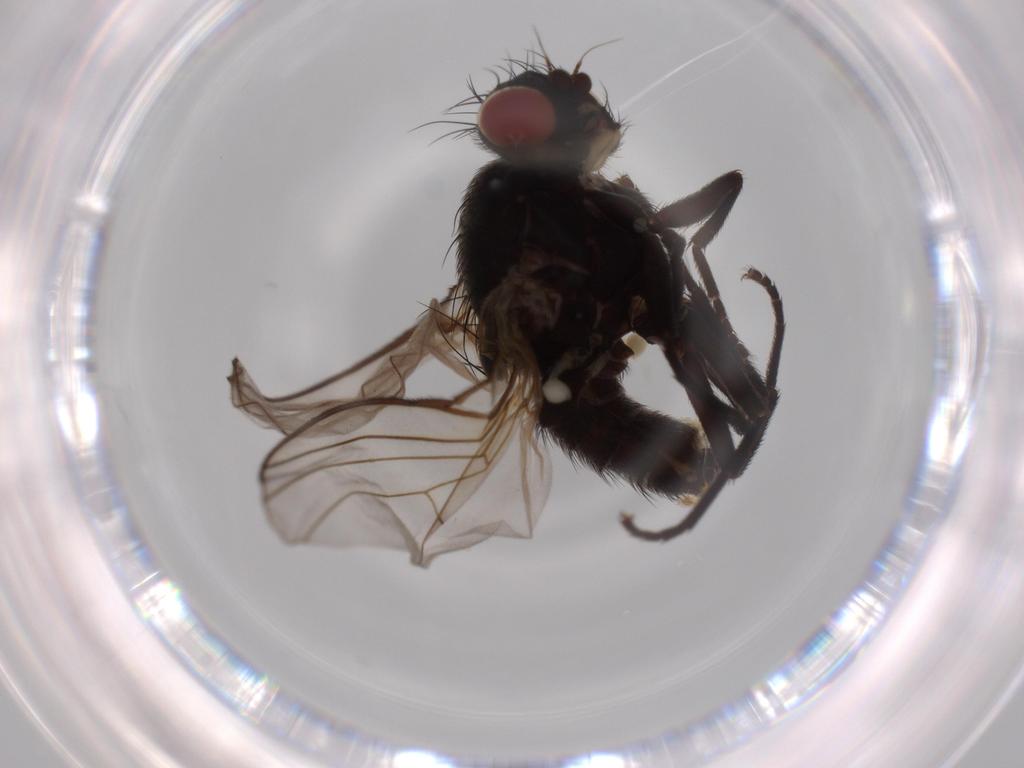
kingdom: Animalia
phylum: Arthropoda
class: Insecta
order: Diptera
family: Agromyzidae
